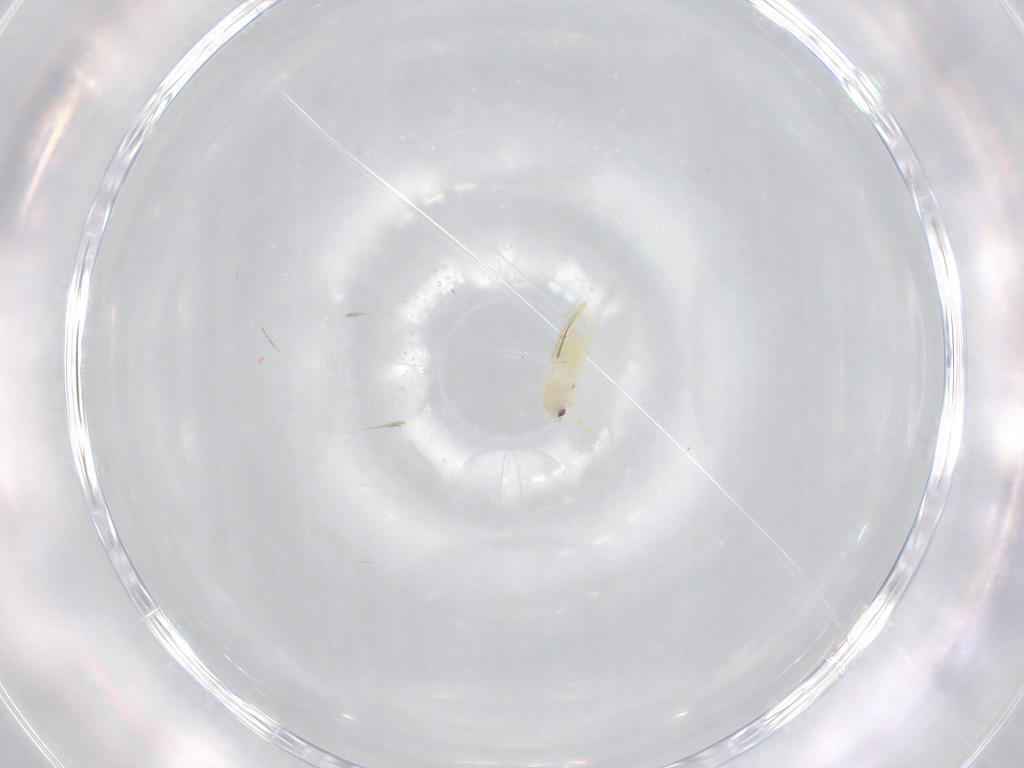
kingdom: Animalia
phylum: Arthropoda
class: Insecta
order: Hemiptera
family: Aleyrodidae
